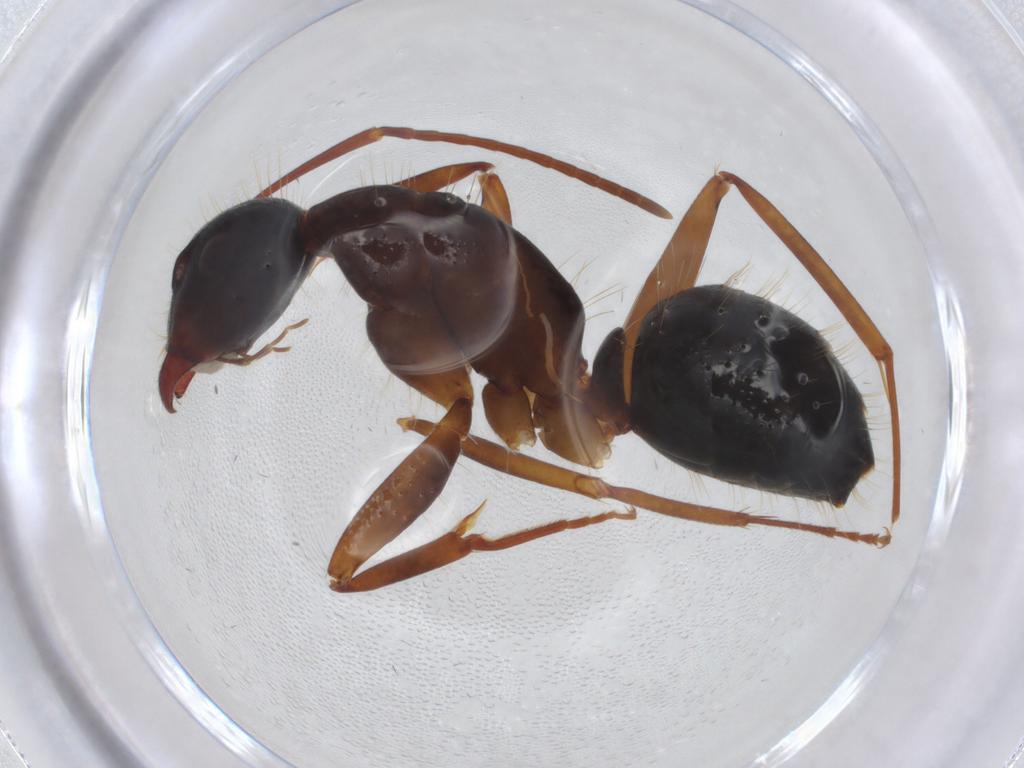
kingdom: Animalia
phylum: Arthropoda
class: Insecta
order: Hymenoptera
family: Formicidae
